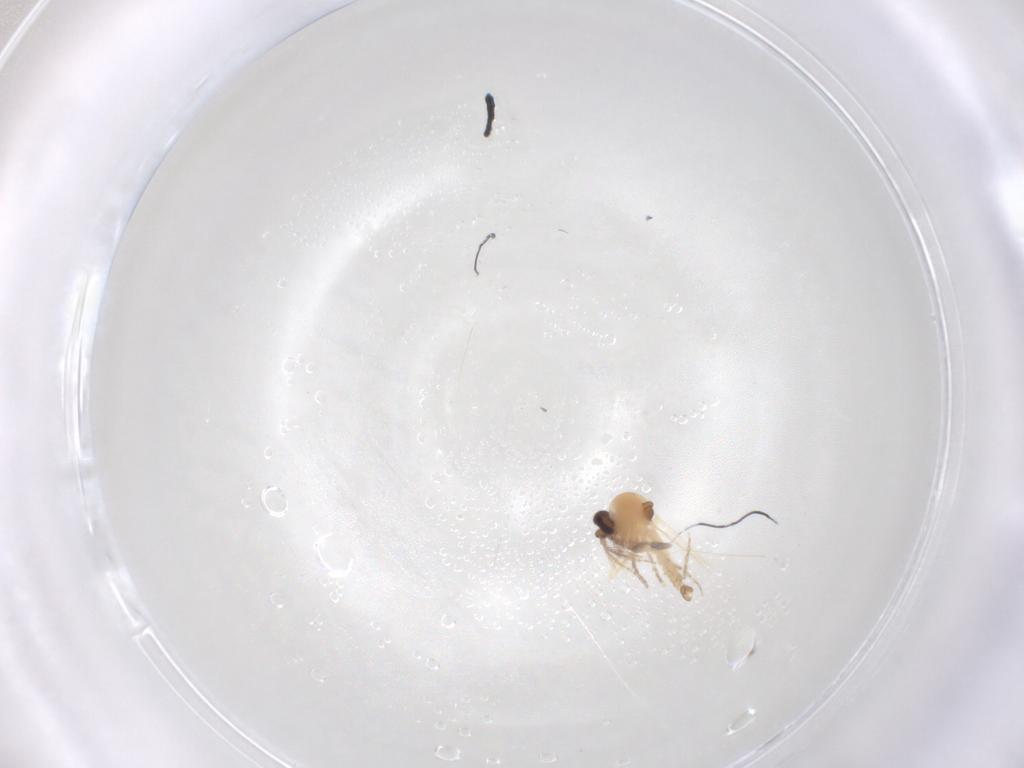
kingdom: Animalia
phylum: Arthropoda
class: Insecta
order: Diptera
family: Ceratopogonidae
